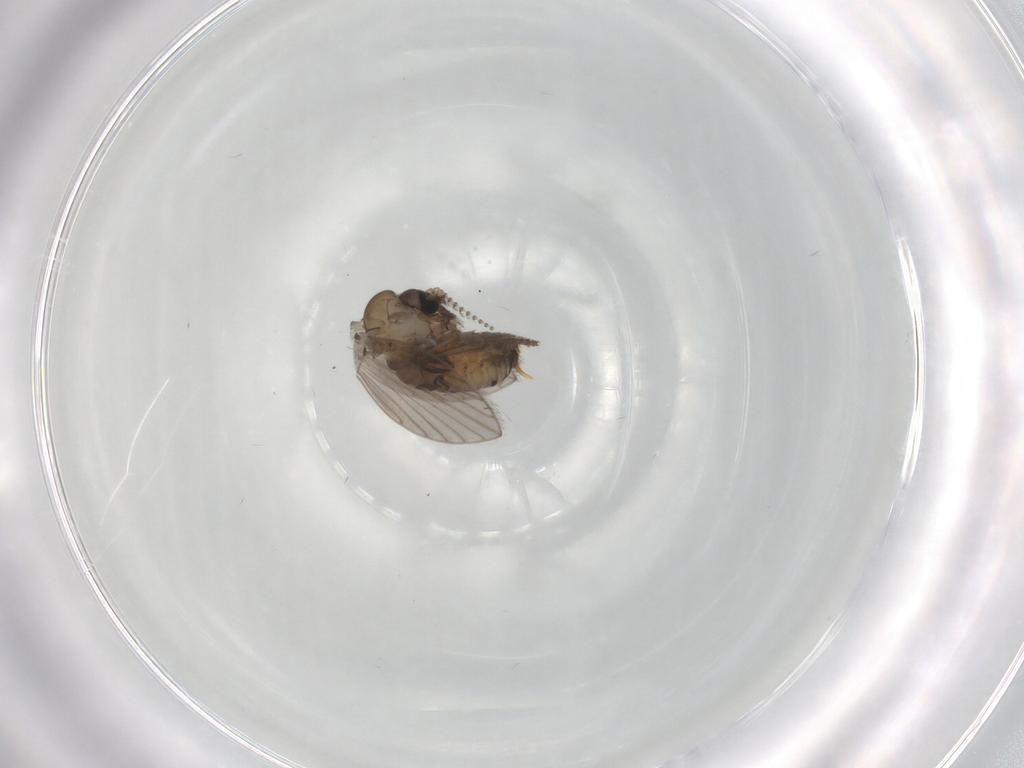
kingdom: Animalia
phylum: Arthropoda
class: Insecta
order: Diptera
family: Psychodidae
